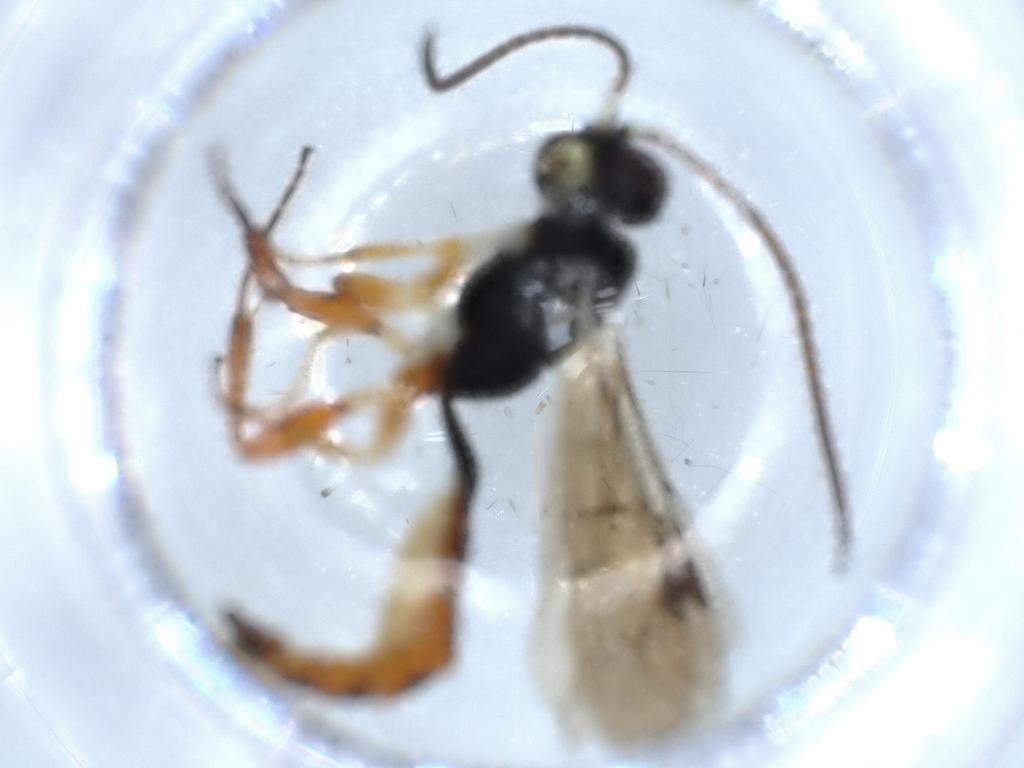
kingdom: Animalia
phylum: Arthropoda
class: Insecta
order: Hymenoptera
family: Ichneumonidae
